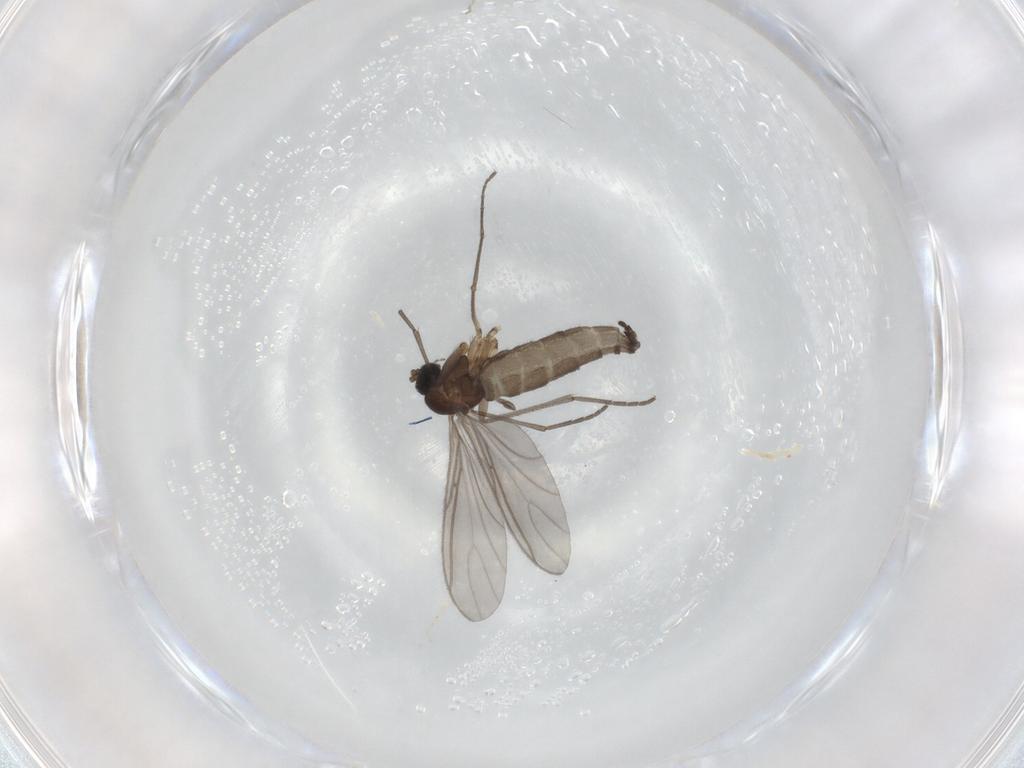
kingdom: Animalia
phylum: Arthropoda
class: Insecta
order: Diptera
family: Sciaridae
